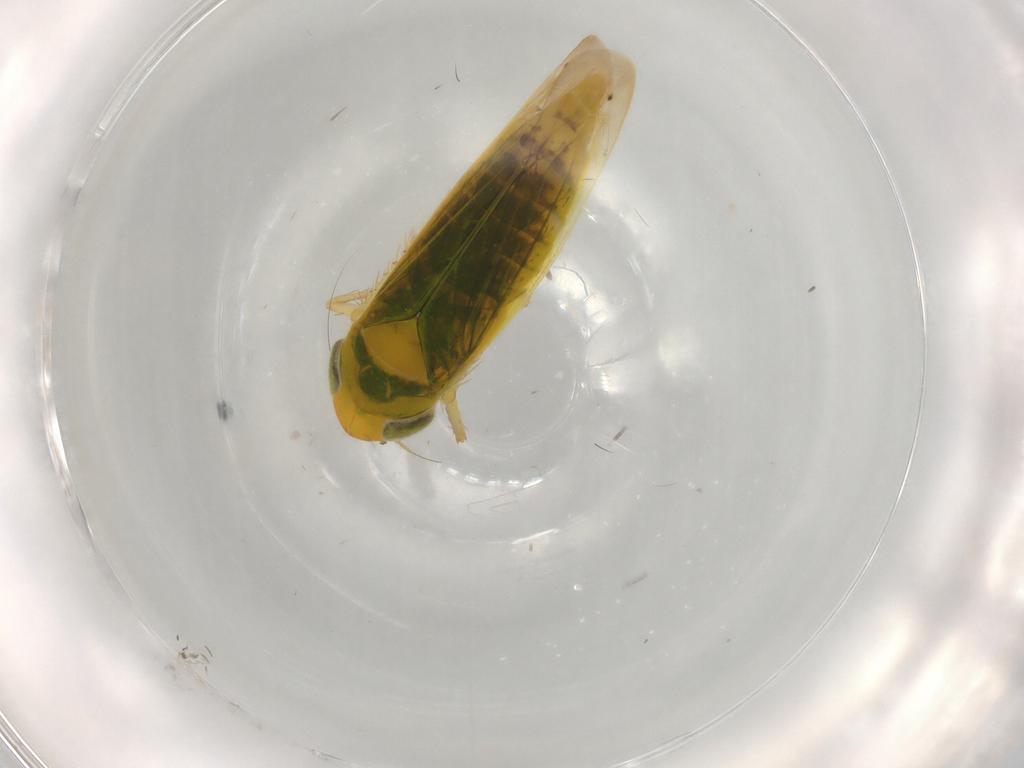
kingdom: Animalia
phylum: Arthropoda
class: Insecta
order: Hemiptera
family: Cicadellidae
